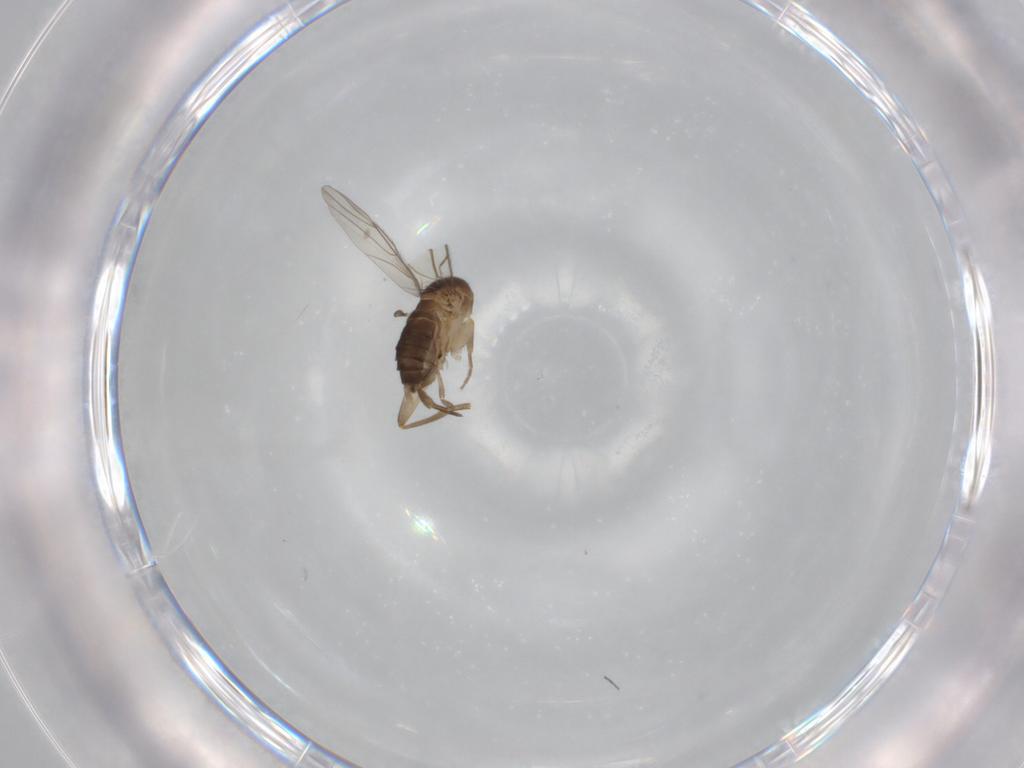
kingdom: Animalia
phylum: Arthropoda
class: Insecta
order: Diptera
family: Phoridae
